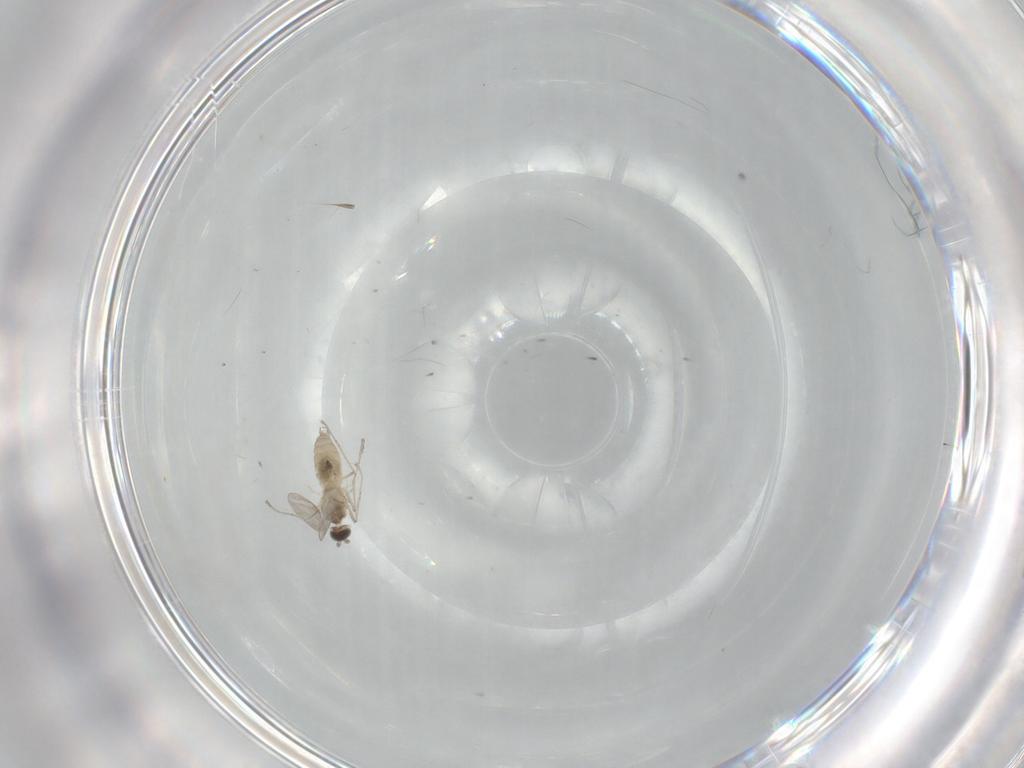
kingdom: Animalia
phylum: Arthropoda
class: Insecta
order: Diptera
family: Cecidomyiidae
